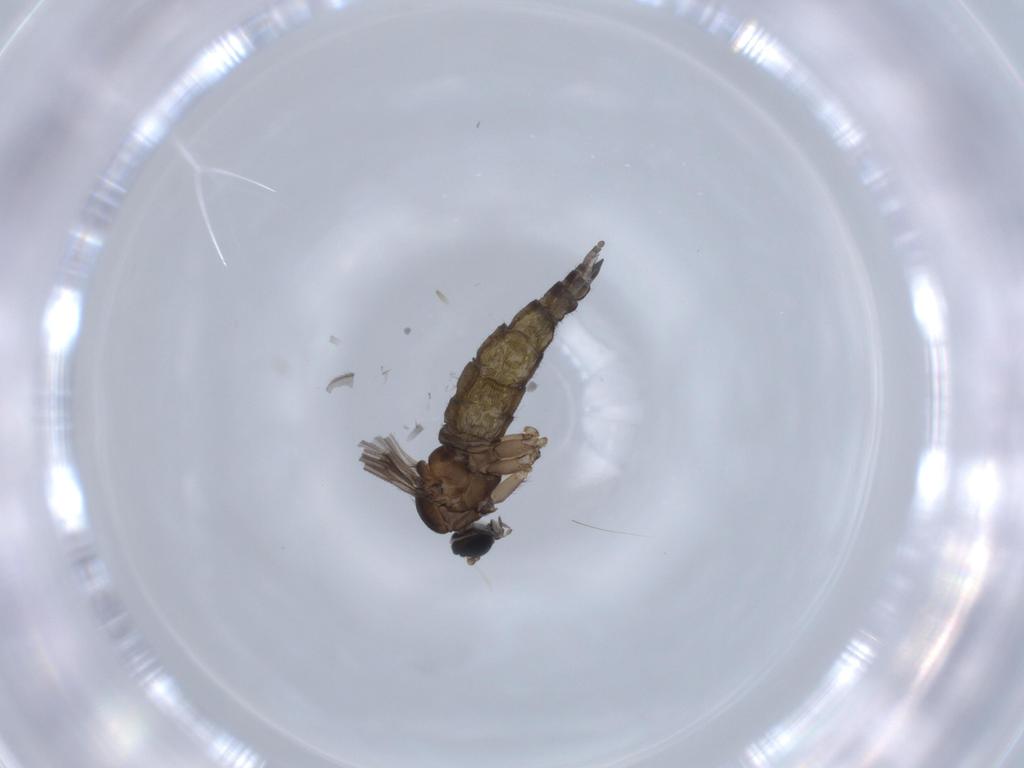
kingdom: Animalia
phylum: Arthropoda
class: Insecta
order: Diptera
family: Sciaridae
